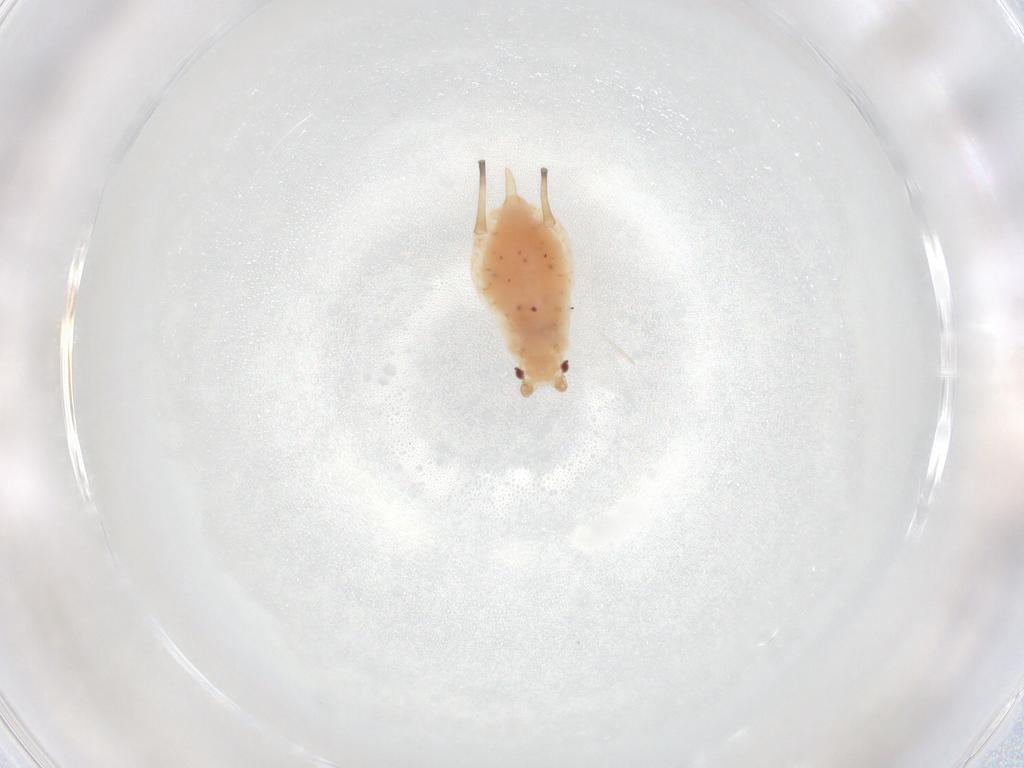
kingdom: Animalia
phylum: Arthropoda
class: Insecta
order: Hemiptera
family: Aphididae
